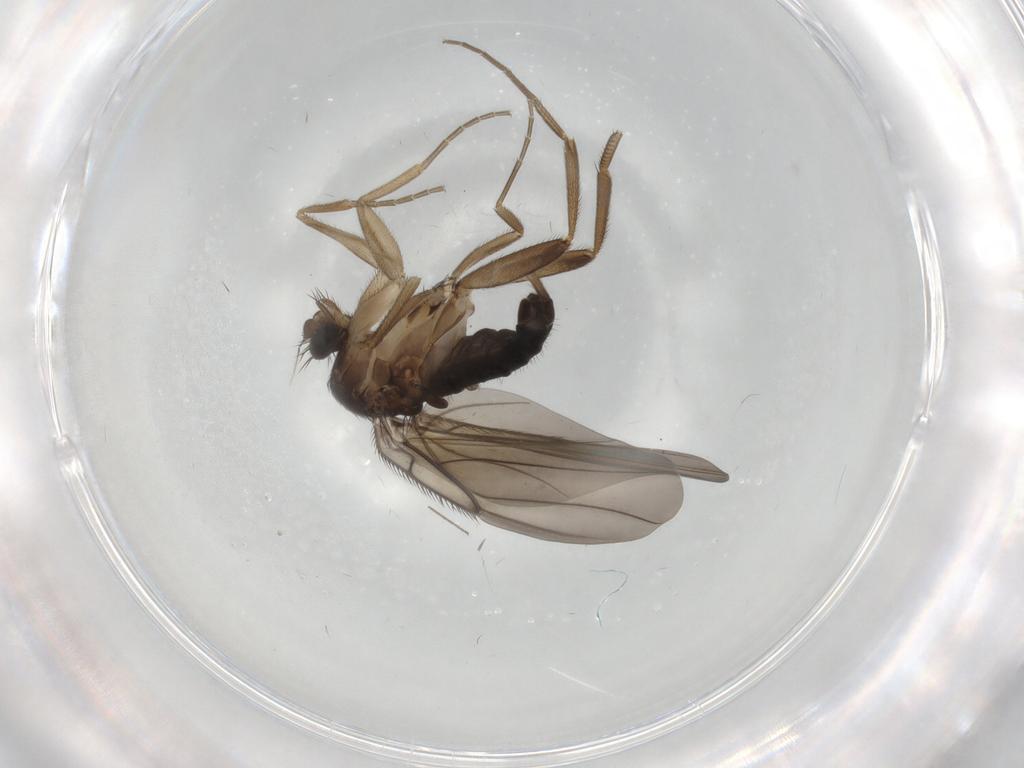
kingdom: Animalia
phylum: Arthropoda
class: Insecta
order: Diptera
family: Phoridae
